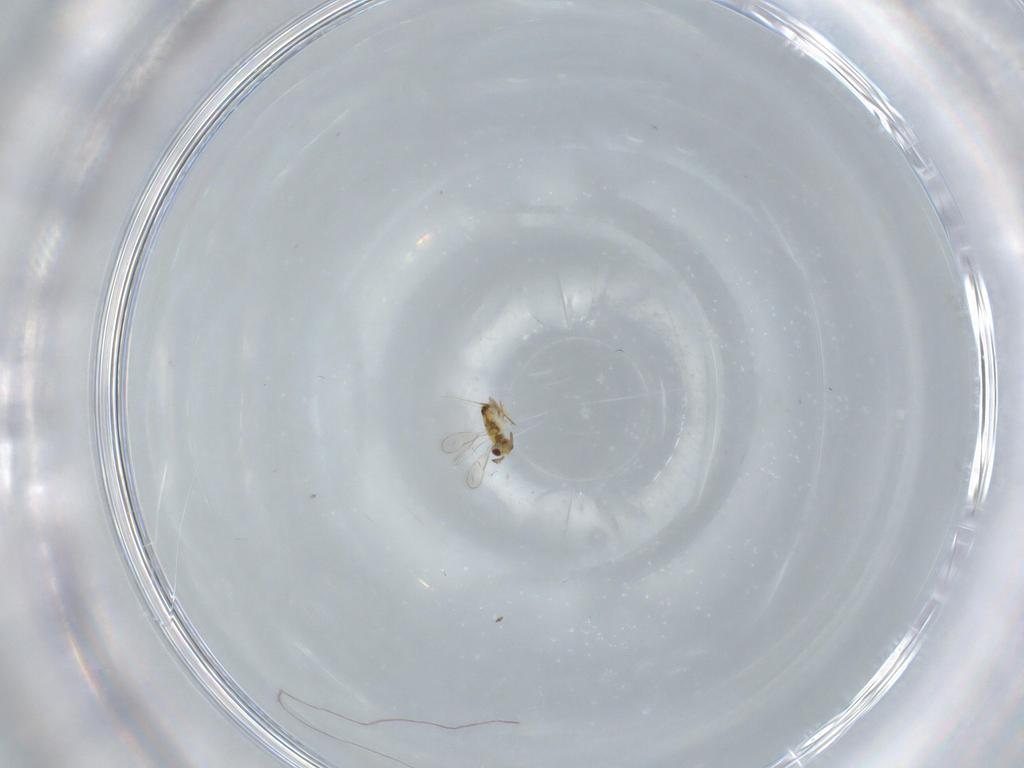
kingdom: Animalia
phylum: Arthropoda
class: Insecta
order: Hymenoptera
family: Aphelinidae
